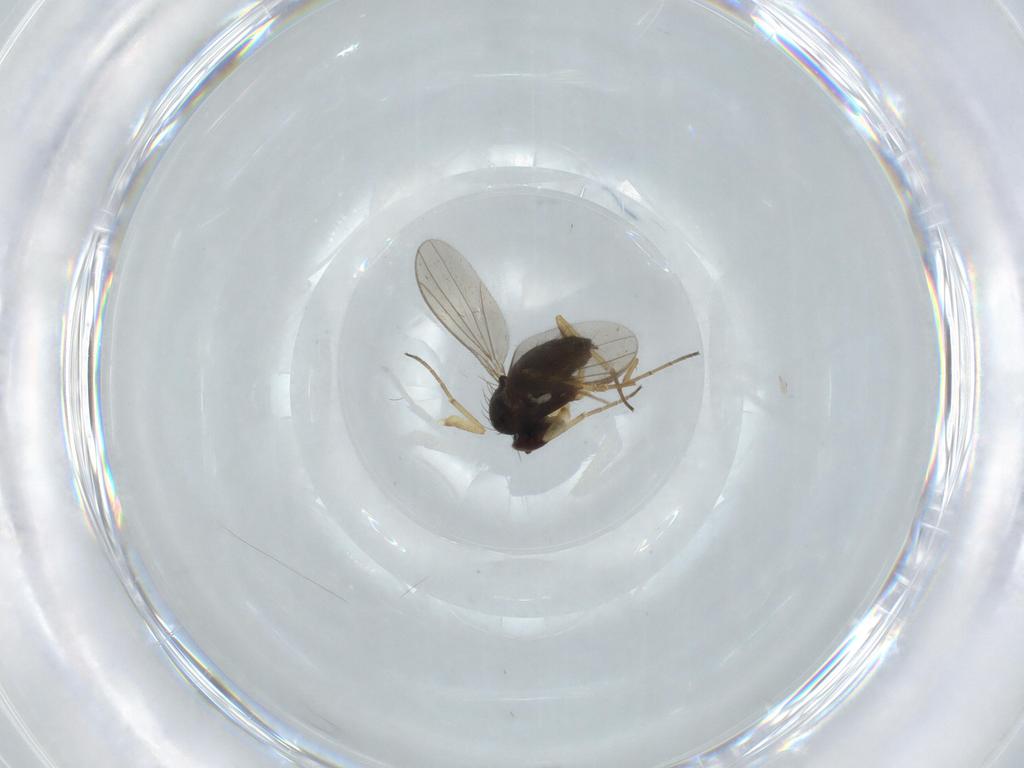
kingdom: Animalia
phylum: Arthropoda
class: Insecta
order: Diptera
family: Dolichopodidae
